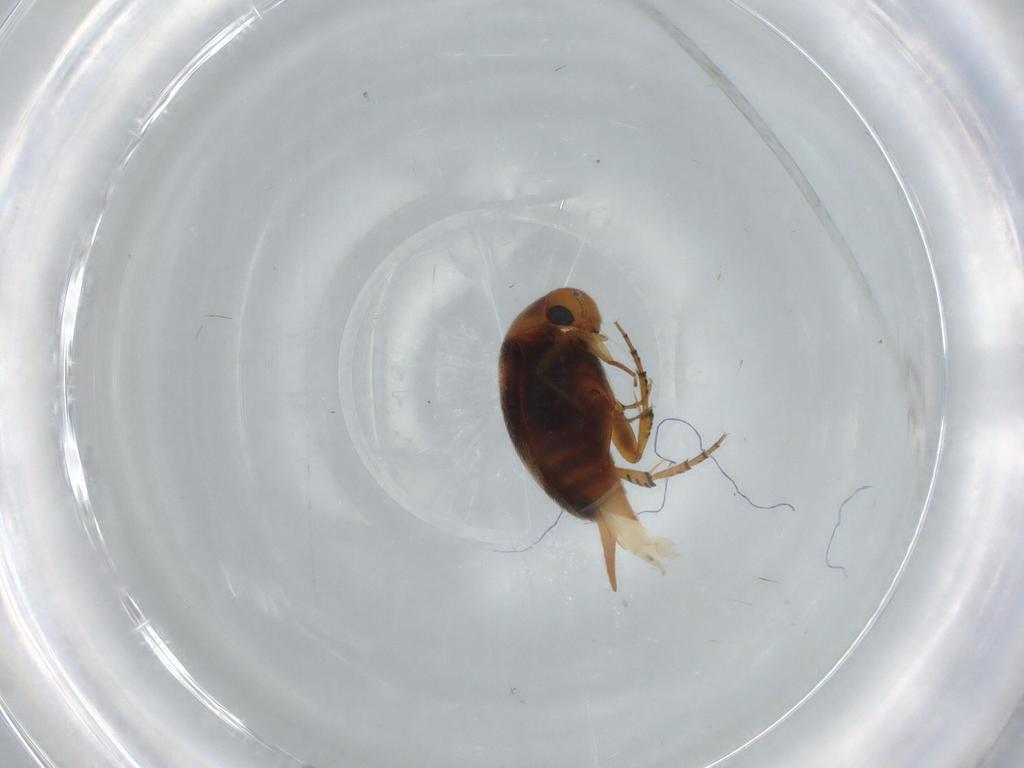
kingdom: Animalia
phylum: Arthropoda
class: Insecta
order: Coleoptera
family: Mordellidae
